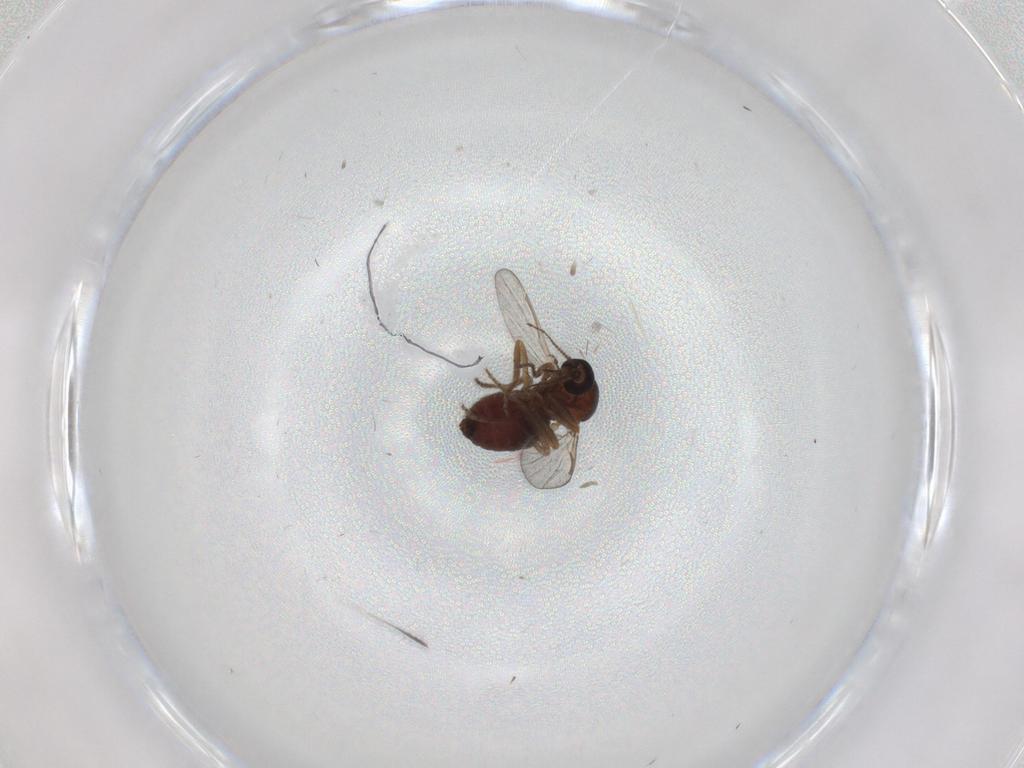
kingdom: Animalia
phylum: Arthropoda
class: Insecta
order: Diptera
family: Ceratopogonidae
